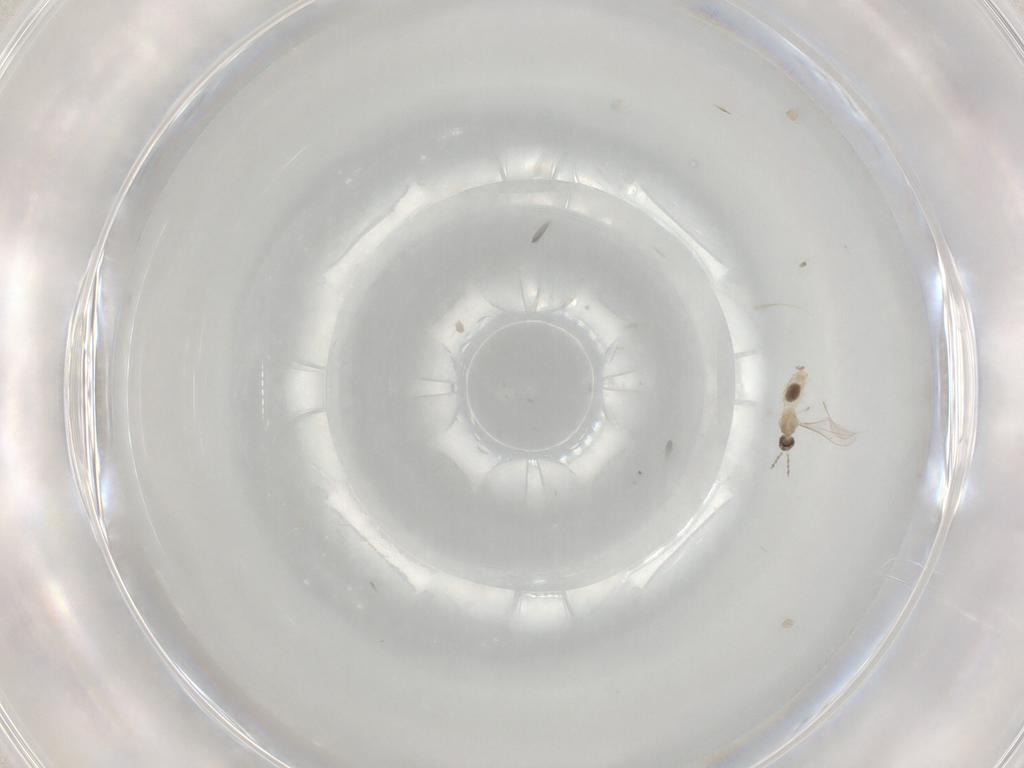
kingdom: Animalia
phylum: Arthropoda
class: Insecta
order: Diptera
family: Cecidomyiidae
